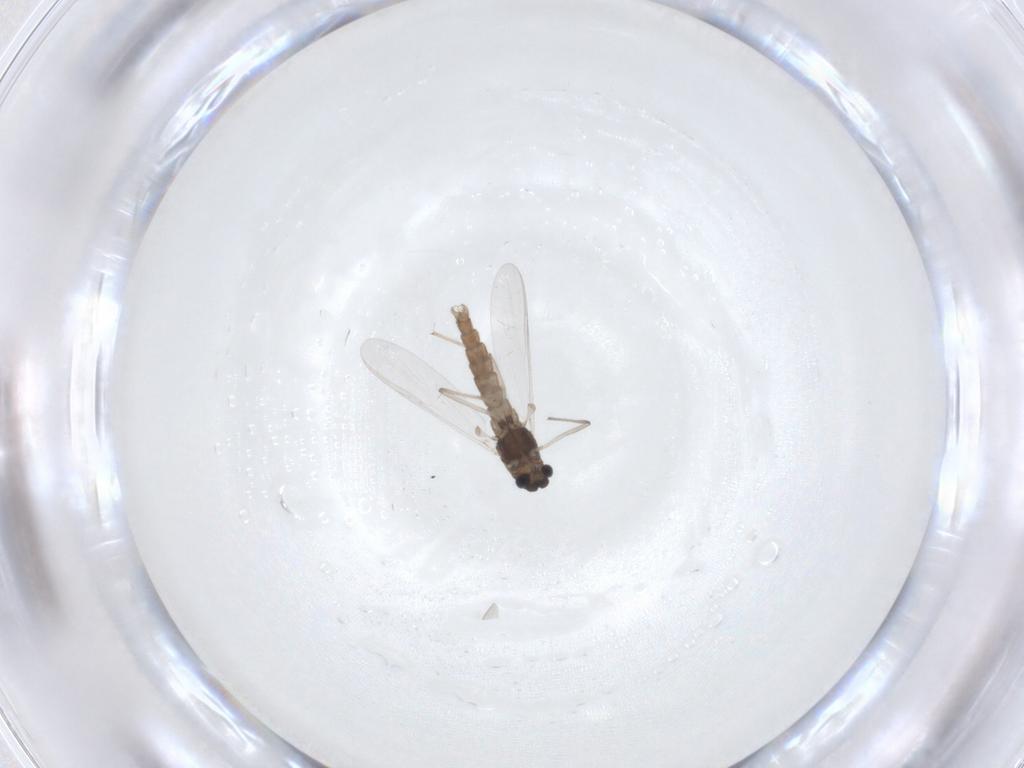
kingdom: Animalia
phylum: Arthropoda
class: Insecta
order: Diptera
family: Chironomidae
